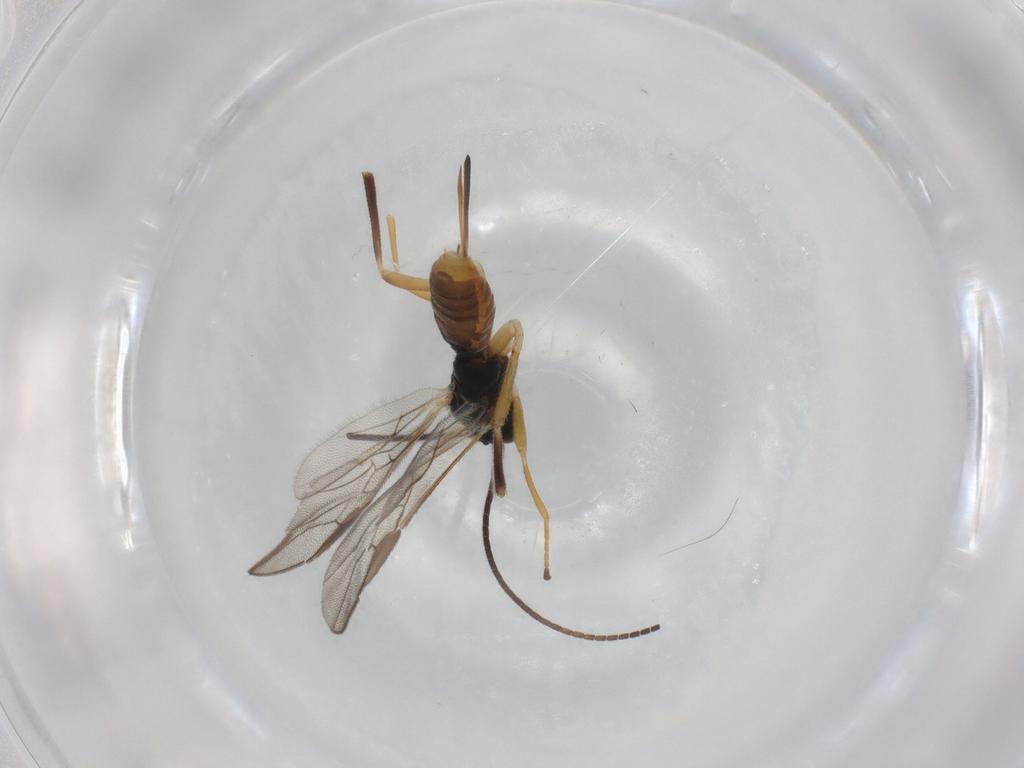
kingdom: Animalia
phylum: Arthropoda
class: Insecta
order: Hymenoptera
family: Braconidae
